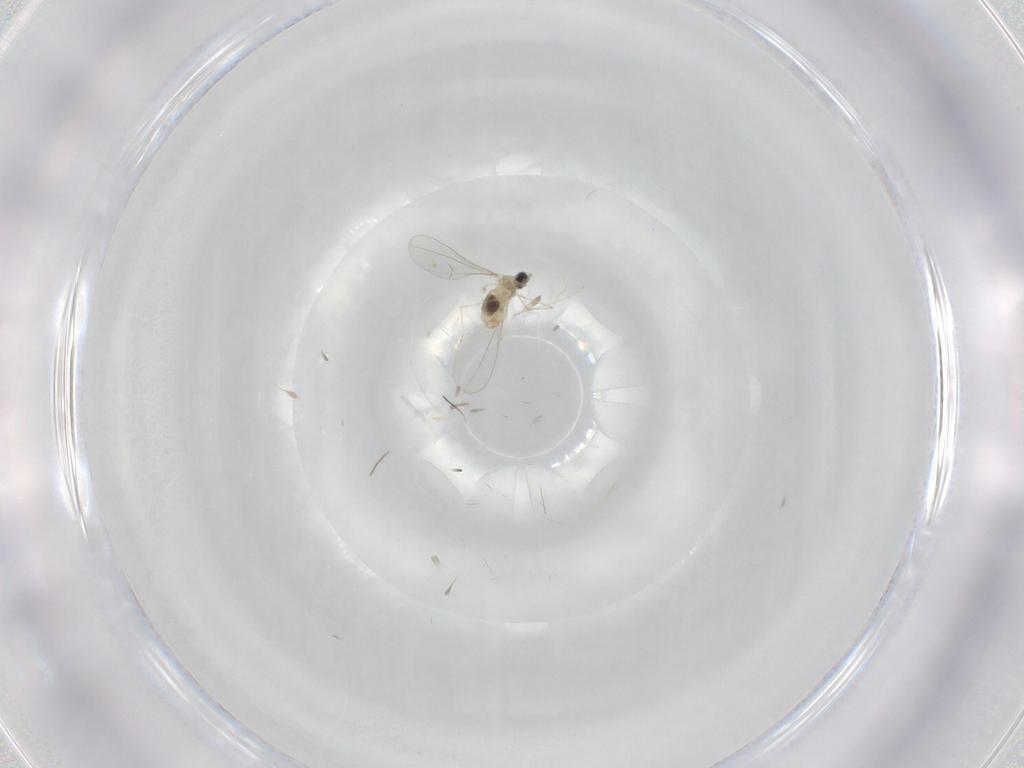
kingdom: Animalia
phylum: Arthropoda
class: Insecta
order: Diptera
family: Cecidomyiidae
